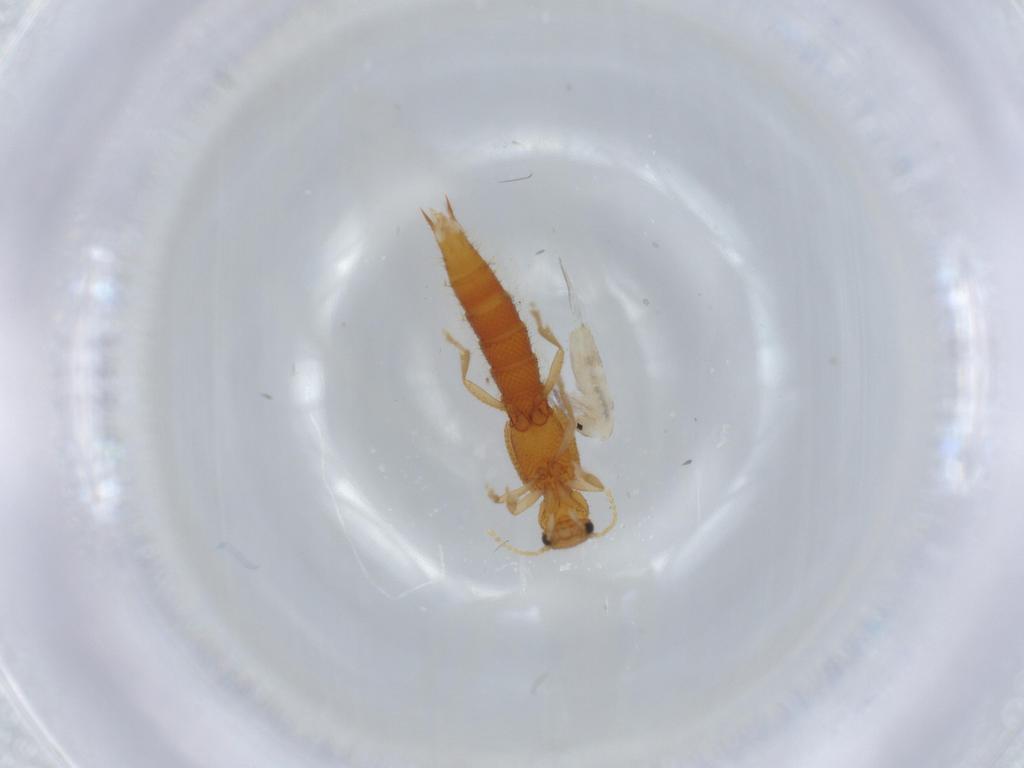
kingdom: Animalia
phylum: Arthropoda
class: Insecta
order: Coleoptera
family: Staphylinidae
